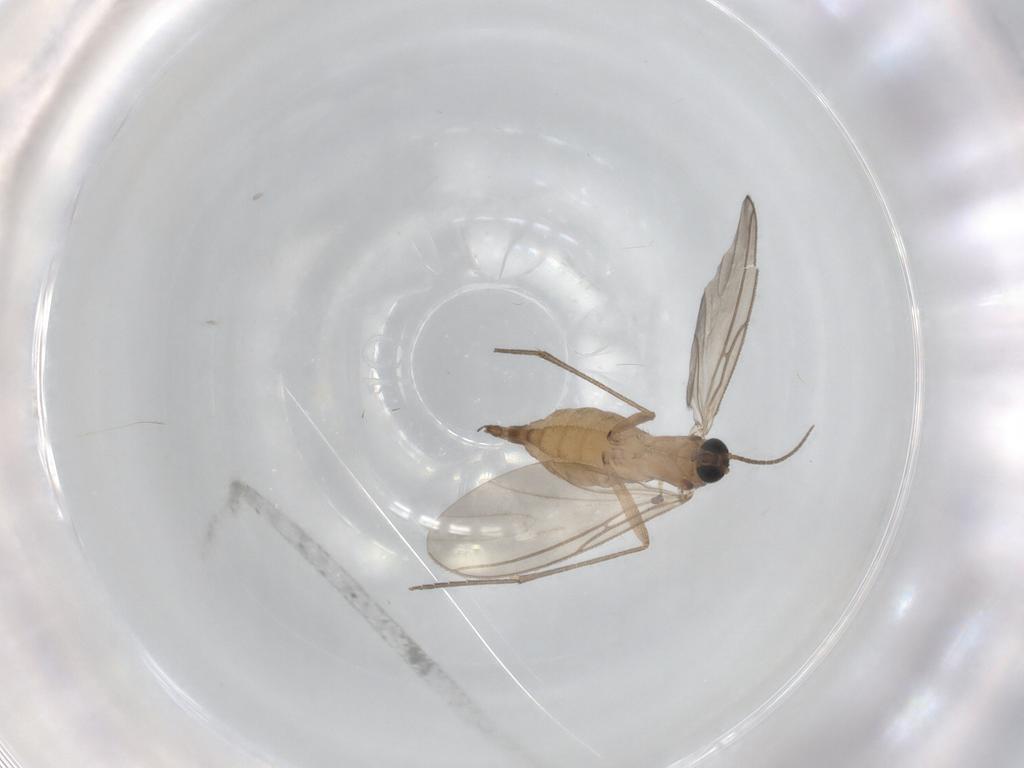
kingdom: Animalia
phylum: Arthropoda
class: Insecta
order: Diptera
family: Sciaridae
